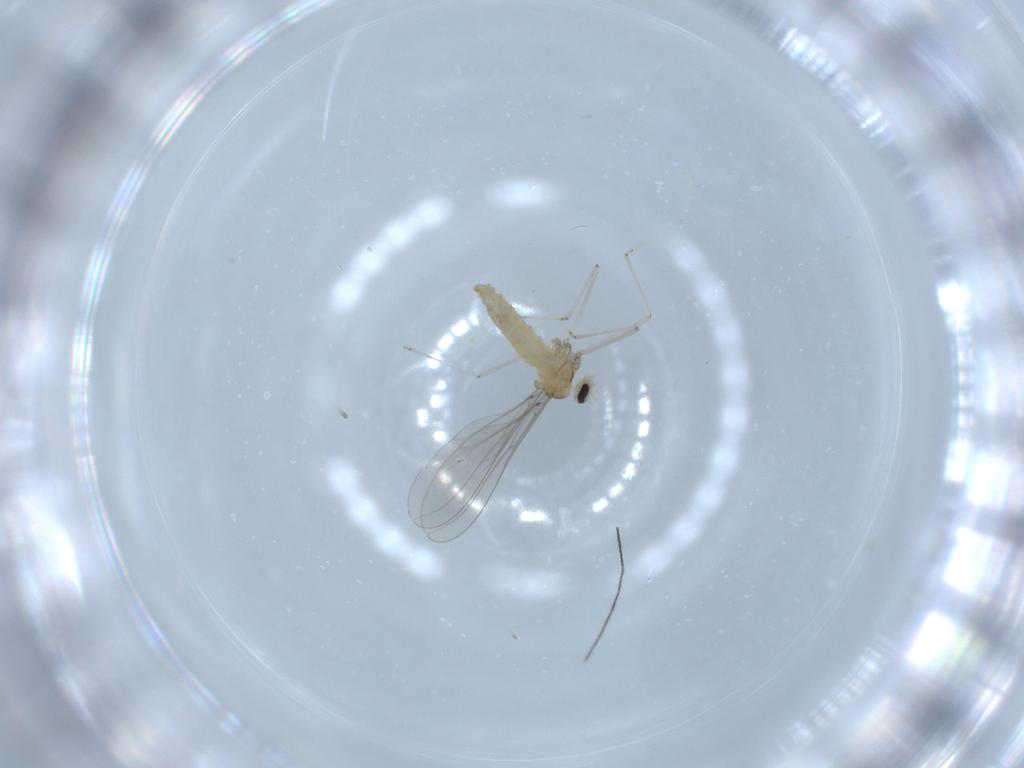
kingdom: Animalia
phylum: Arthropoda
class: Insecta
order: Diptera
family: Cecidomyiidae
